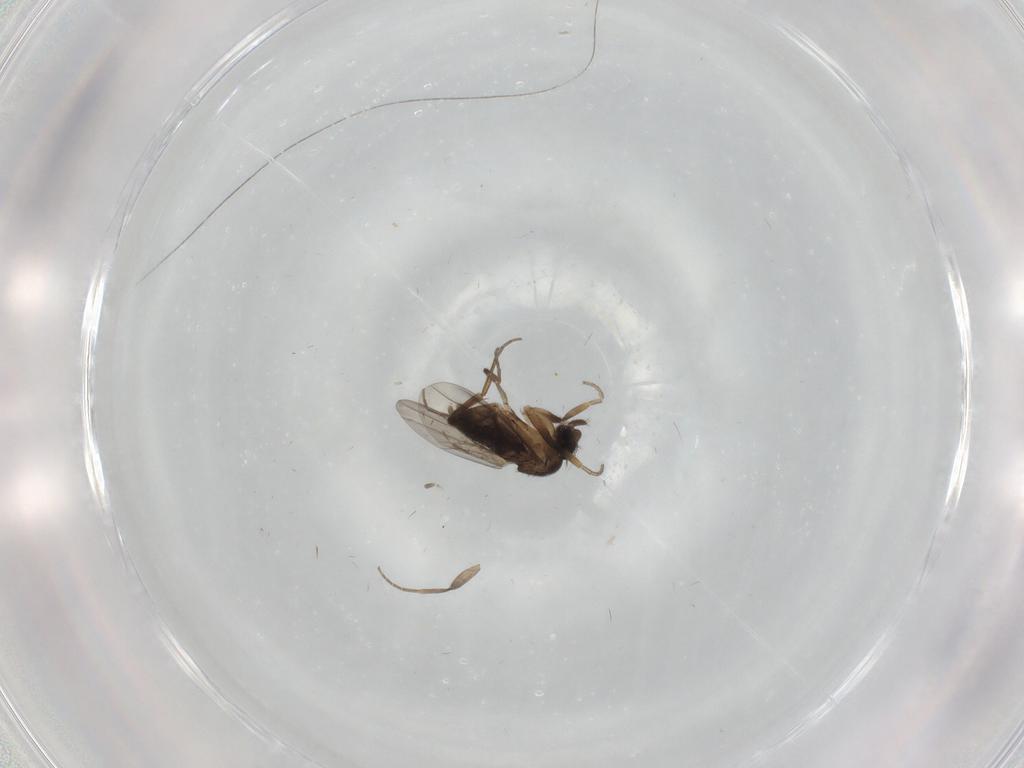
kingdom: Animalia
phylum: Arthropoda
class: Insecta
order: Diptera
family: Phoridae
